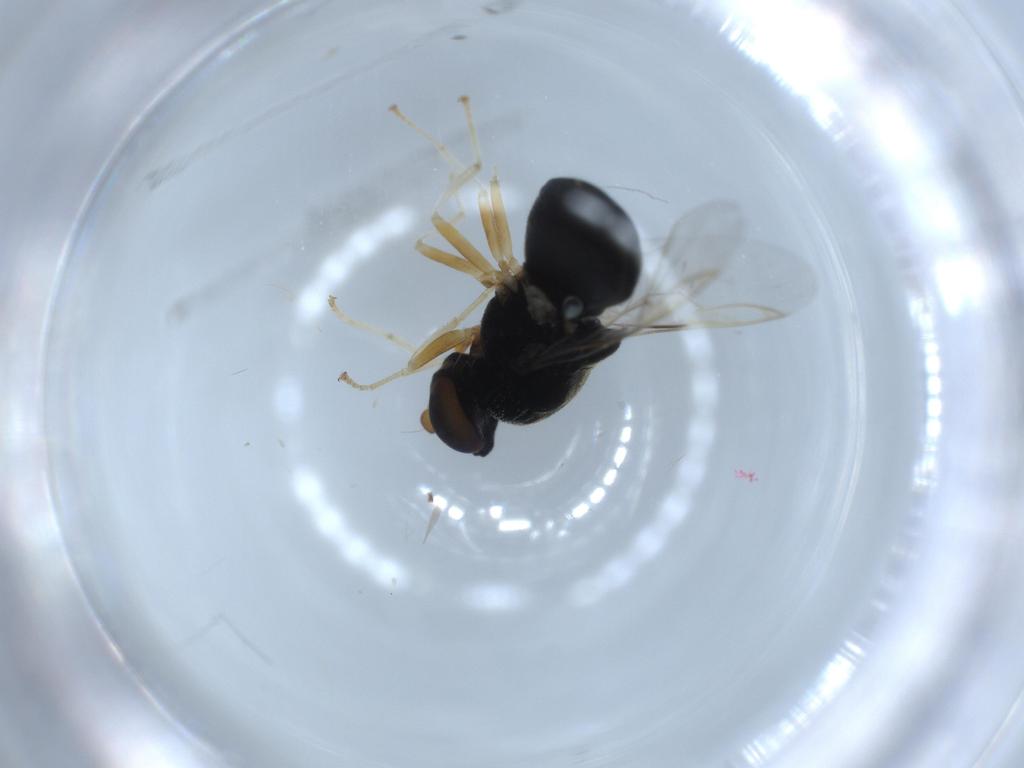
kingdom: Animalia
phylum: Arthropoda
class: Insecta
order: Diptera
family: Stratiomyidae
